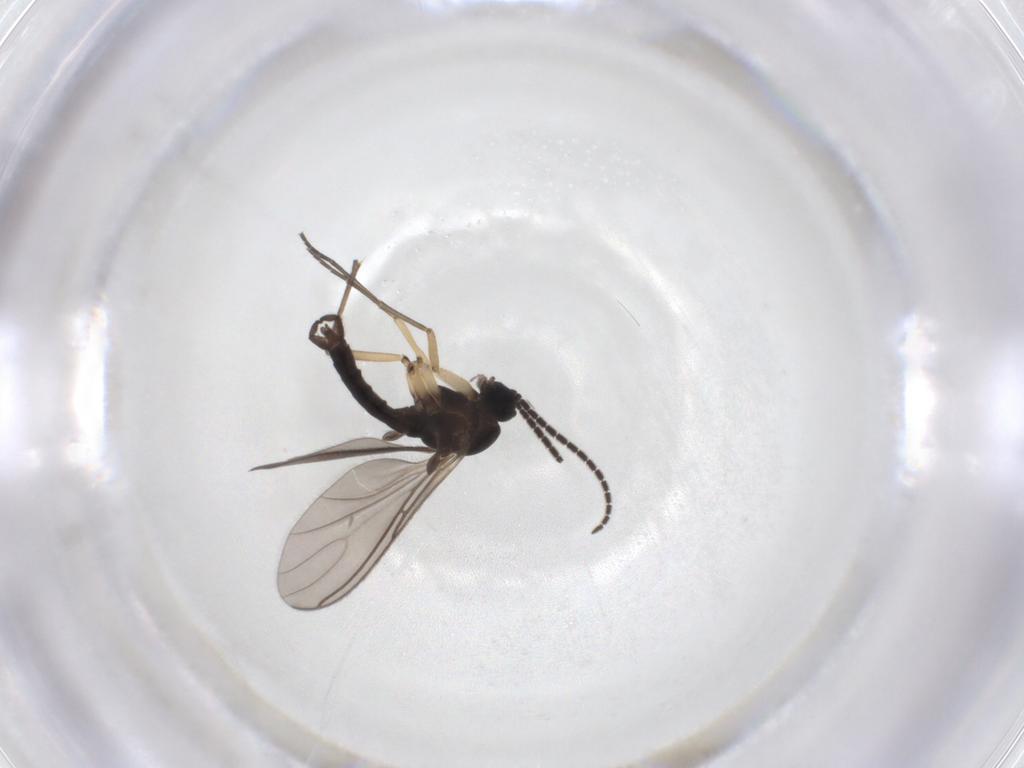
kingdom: Animalia
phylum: Arthropoda
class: Insecta
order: Diptera
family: Sciaridae
